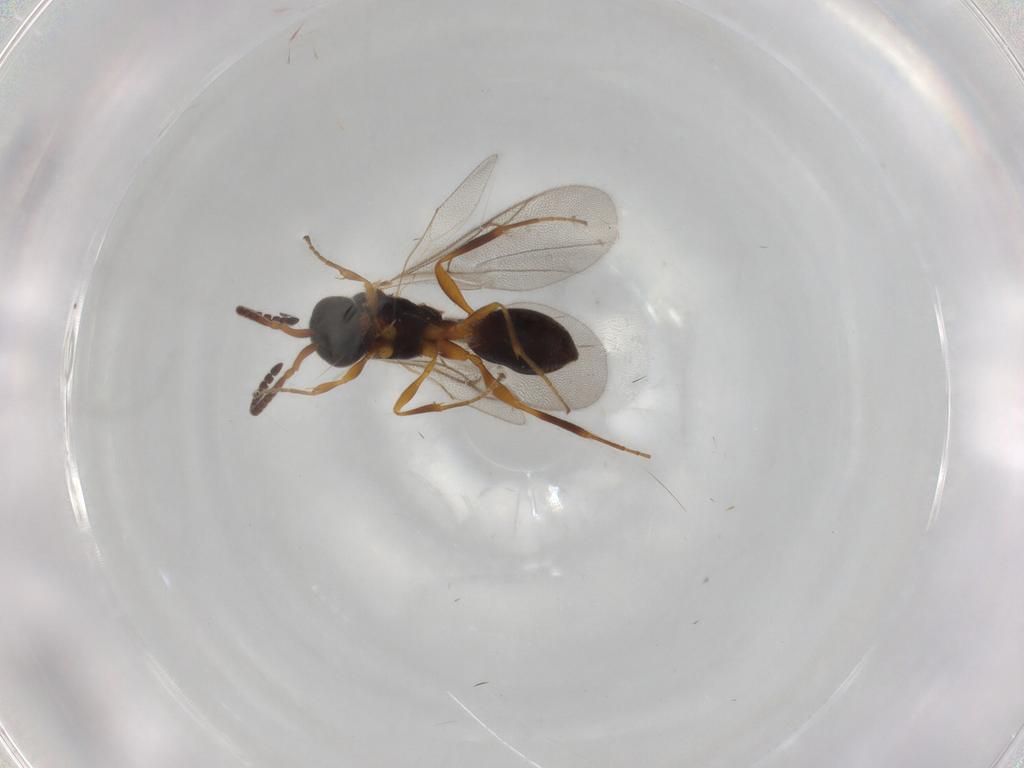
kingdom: Animalia
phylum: Arthropoda
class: Insecta
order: Hymenoptera
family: Diapriidae
